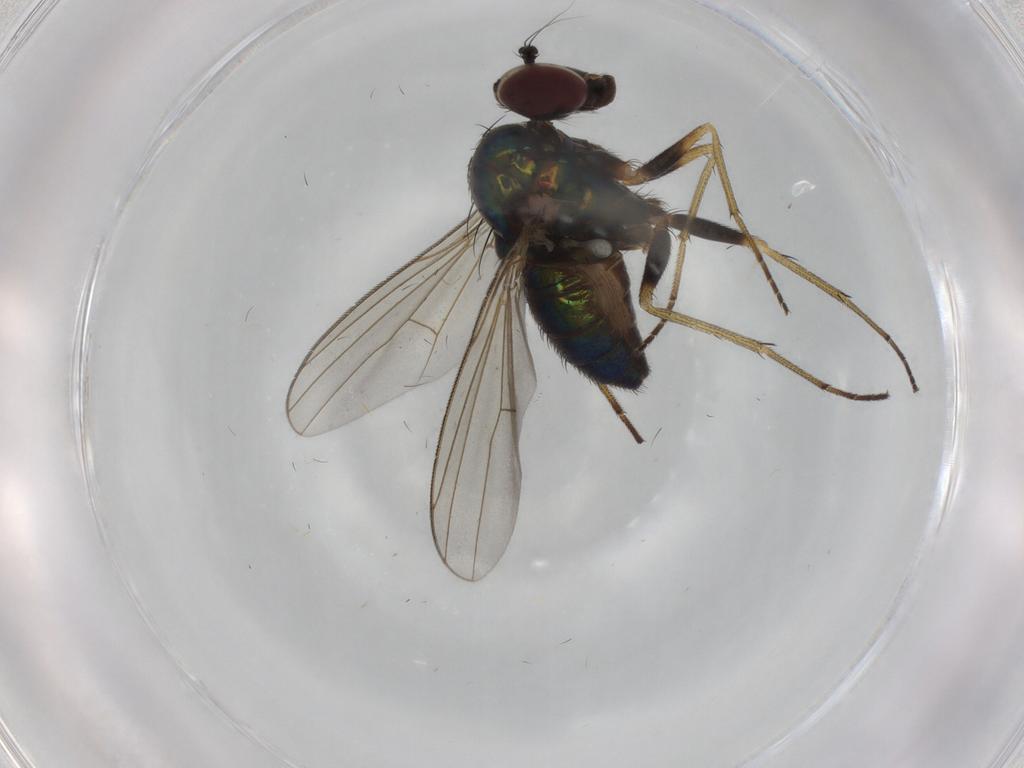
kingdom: Animalia
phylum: Arthropoda
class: Insecta
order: Diptera
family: Dolichopodidae
